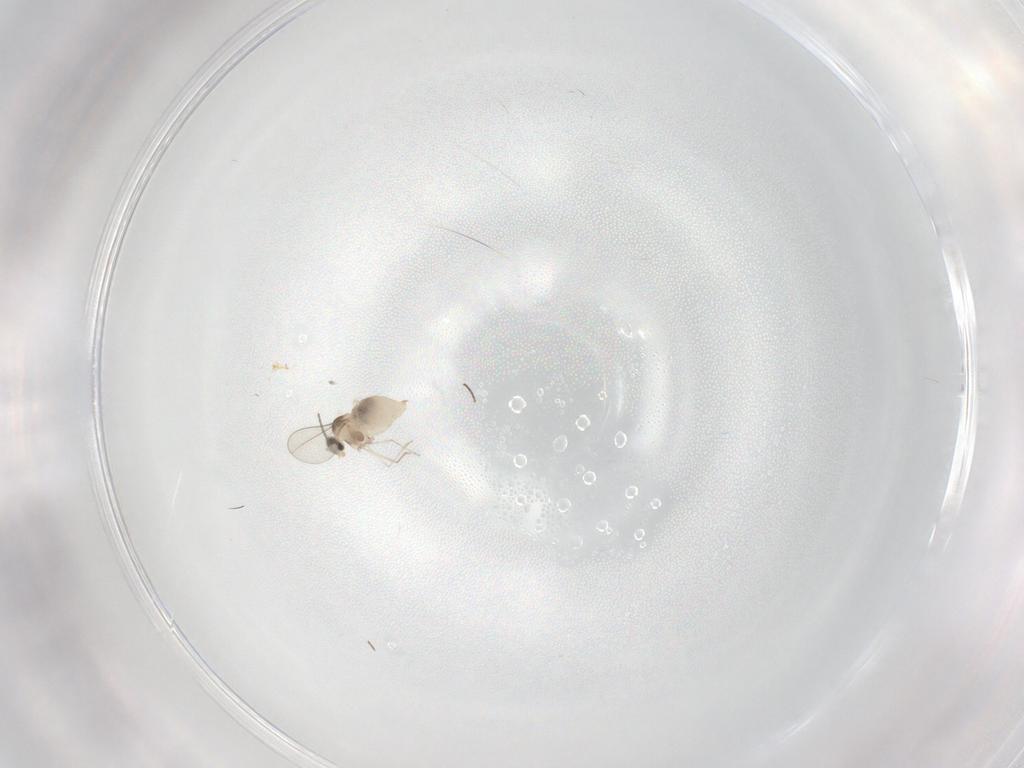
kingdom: Animalia
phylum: Arthropoda
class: Insecta
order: Diptera
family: Cecidomyiidae
